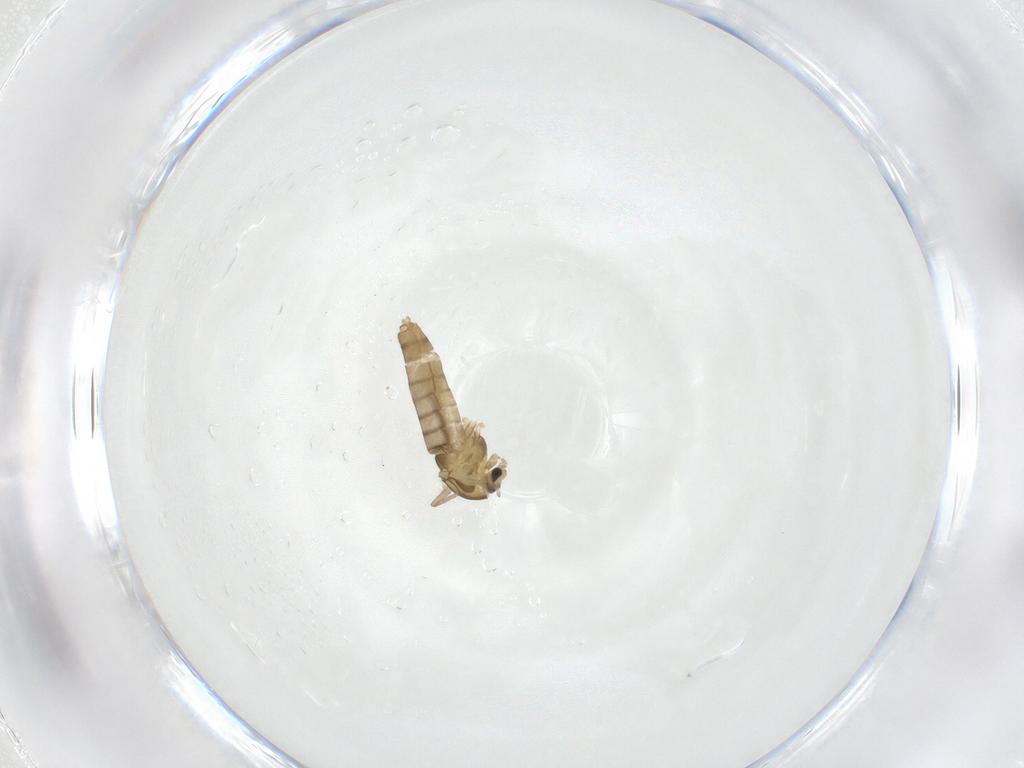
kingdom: Animalia
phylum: Arthropoda
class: Insecta
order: Diptera
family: Chironomidae
